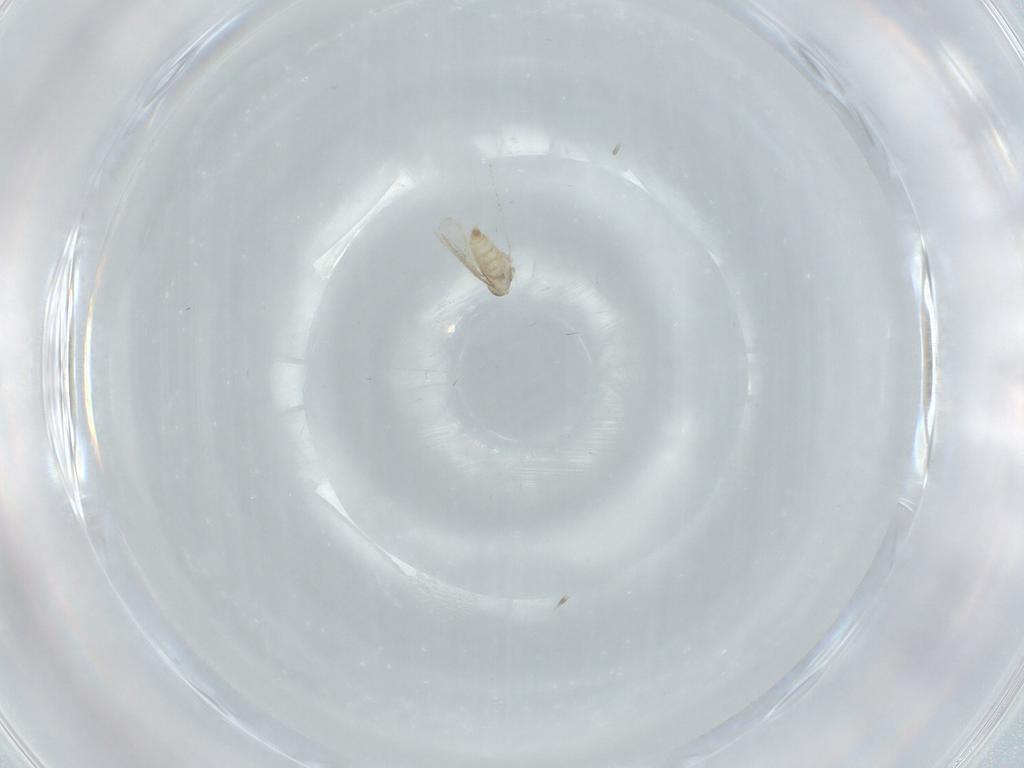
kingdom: Animalia
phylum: Arthropoda
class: Insecta
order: Diptera
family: Cecidomyiidae
